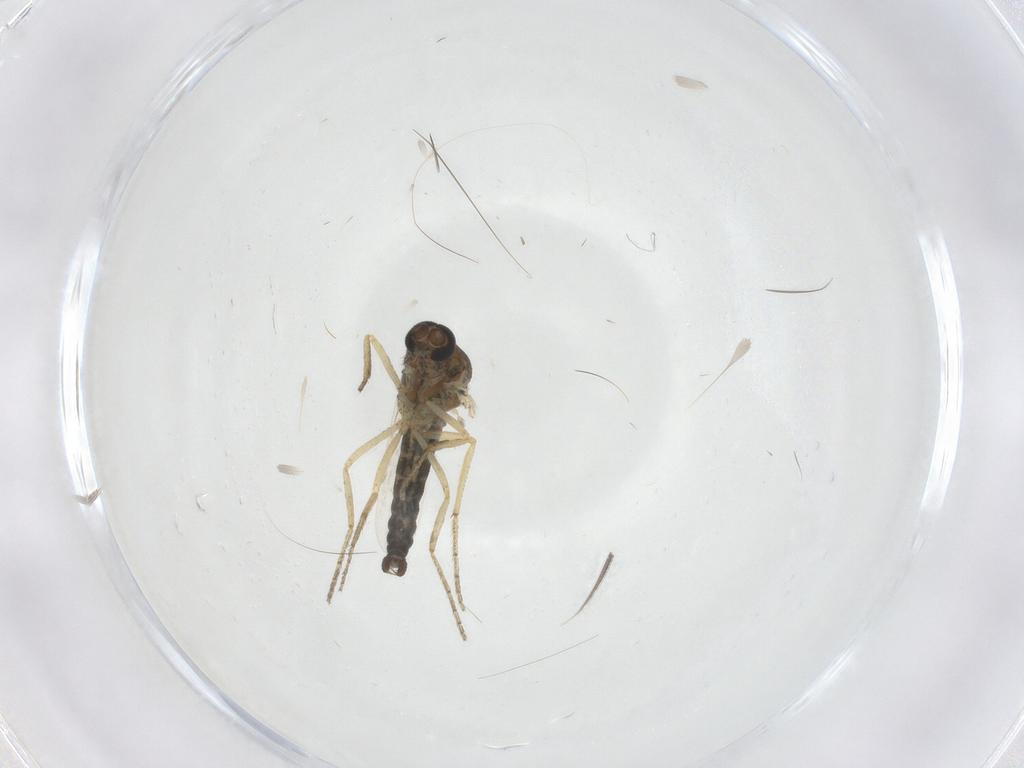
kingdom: Animalia
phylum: Arthropoda
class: Insecta
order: Diptera
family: Ceratopogonidae
